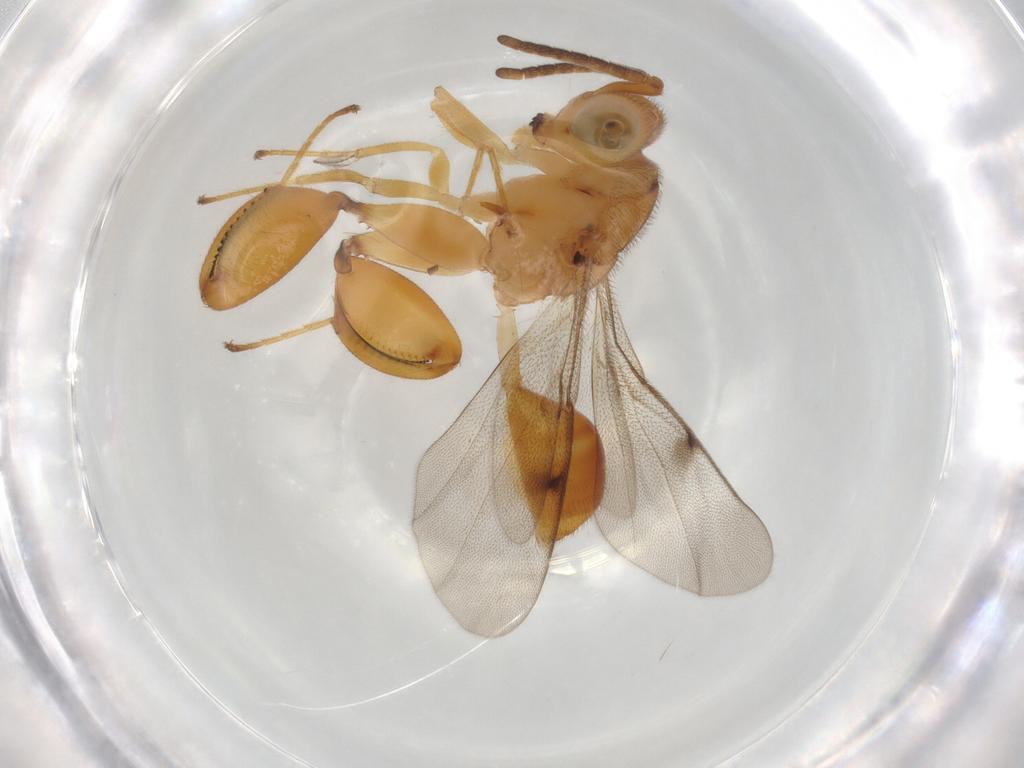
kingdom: Animalia
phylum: Arthropoda
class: Insecta
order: Hymenoptera
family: Chalcididae
